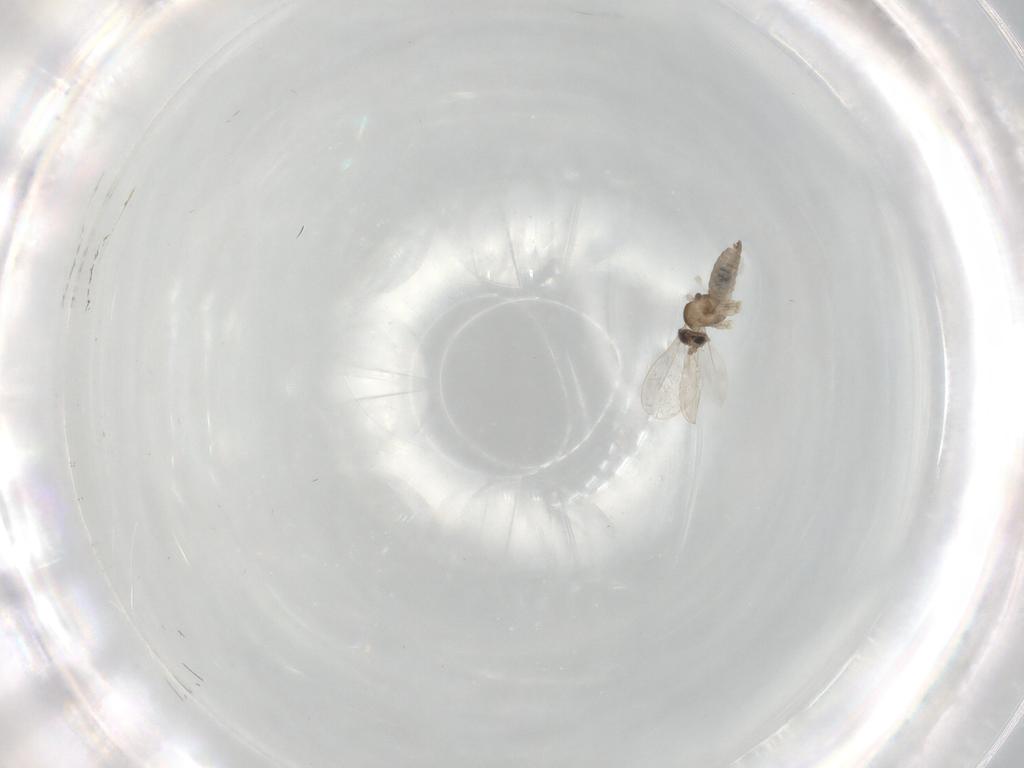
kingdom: Animalia
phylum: Arthropoda
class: Insecta
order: Diptera
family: Cecidomyiidae
